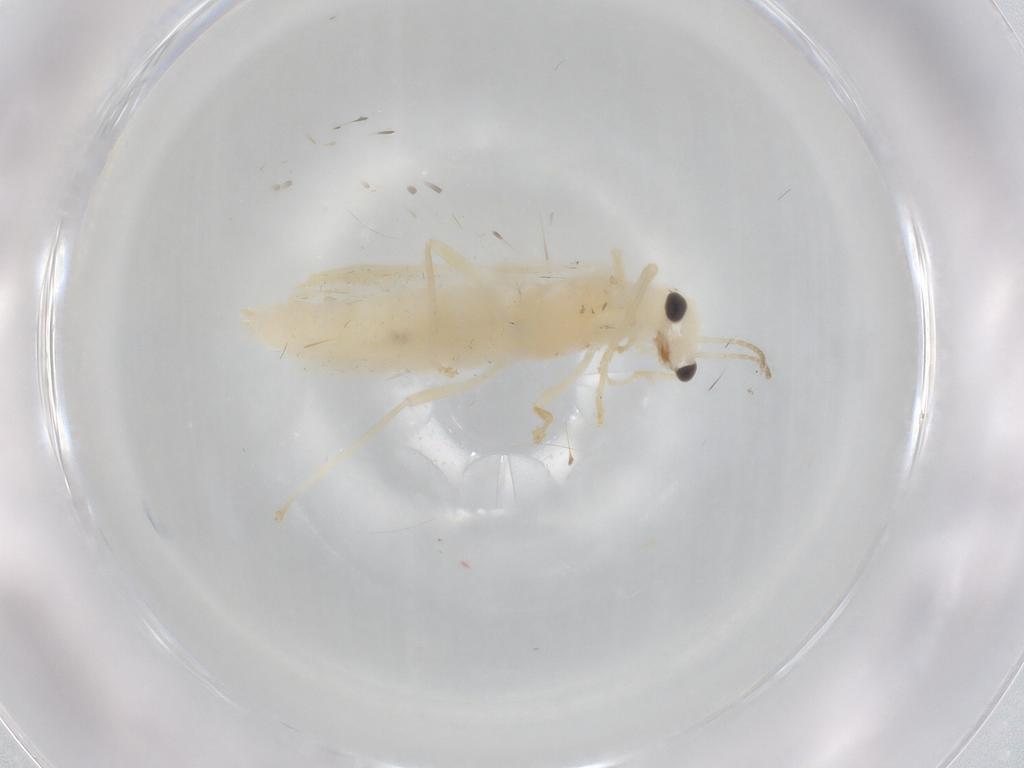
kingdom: Animalia
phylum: Arthropoda
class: Insecta
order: Coleoptera
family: Cantharidae
